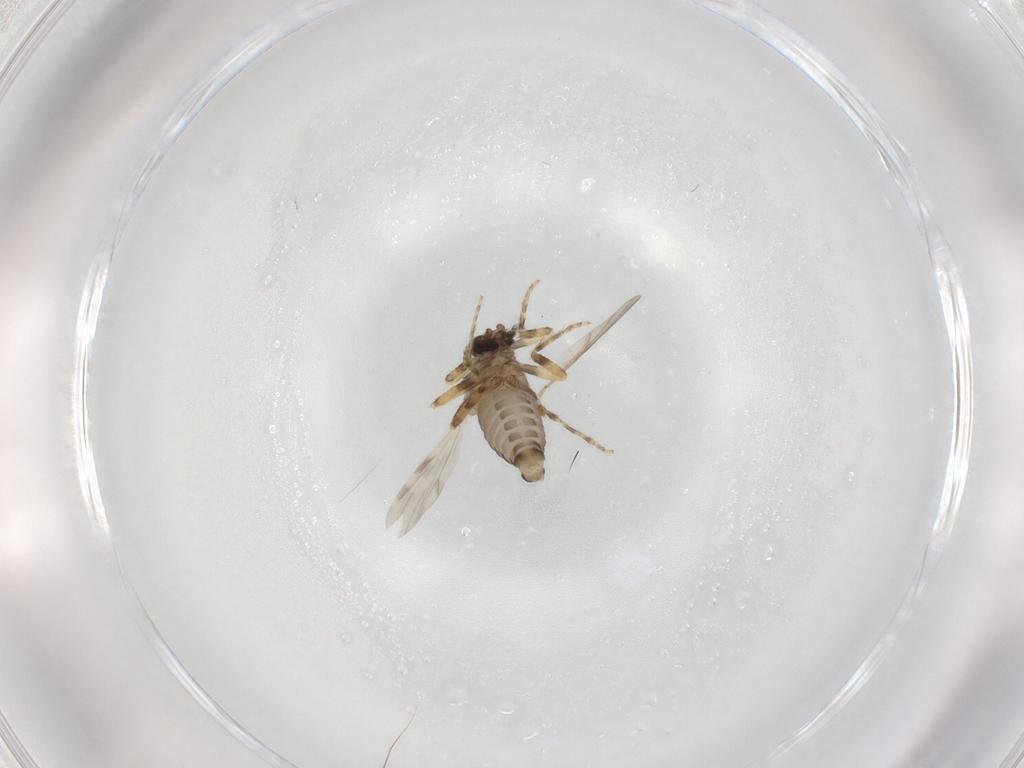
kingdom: Animalia
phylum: Arthropoda
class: Insecta
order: Diptera
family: Ceratopogonidae
